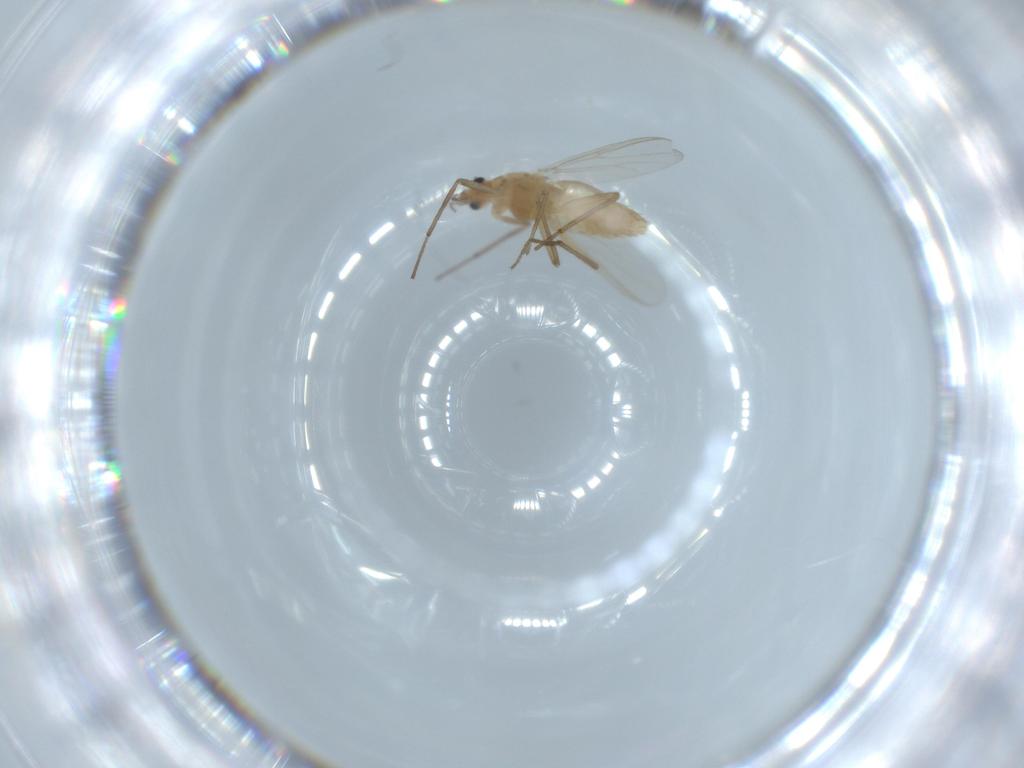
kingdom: Animalia
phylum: Arthropoda
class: Insecta
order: Diptera
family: Chironomidae
